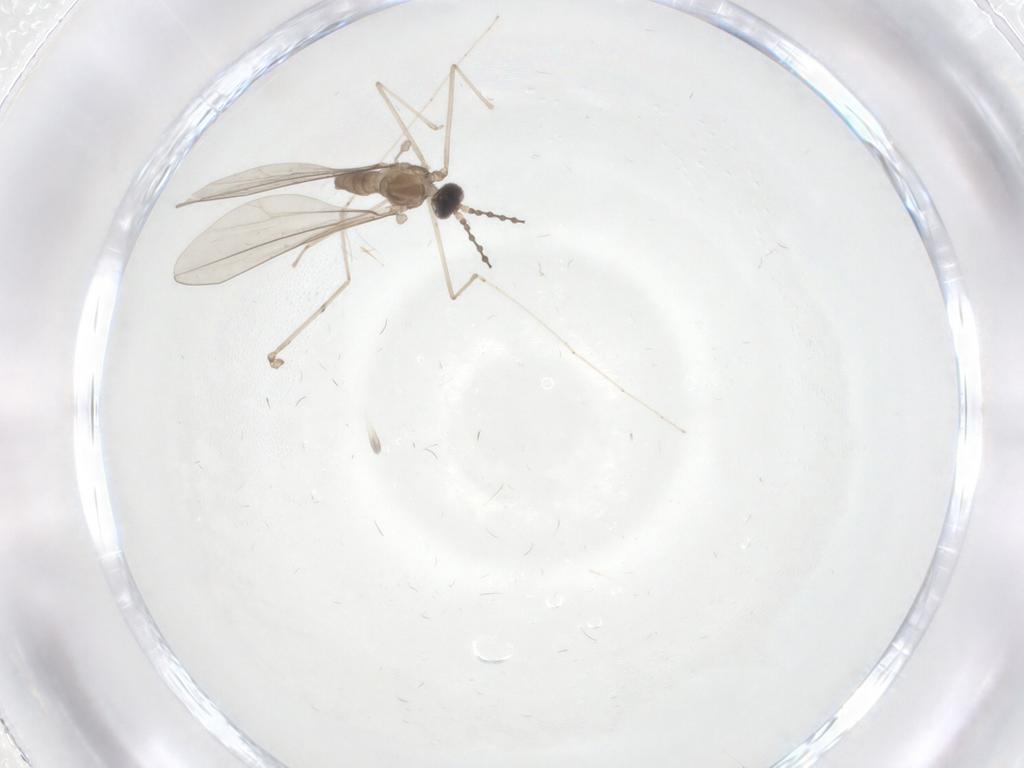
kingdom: Animalia
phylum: Arthropoda
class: Insecta
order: Diptera
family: Cecidomyiidae
